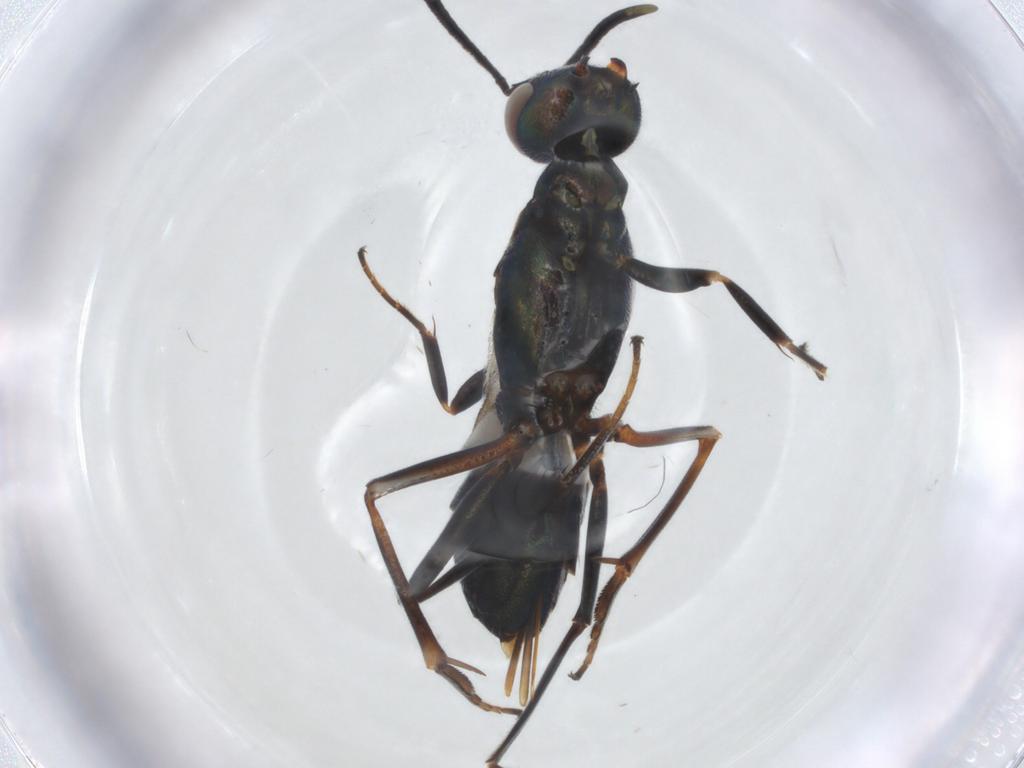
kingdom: Animalia
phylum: Arthropoda
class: Insecta
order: Hymenoptera
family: Eupelmidae
